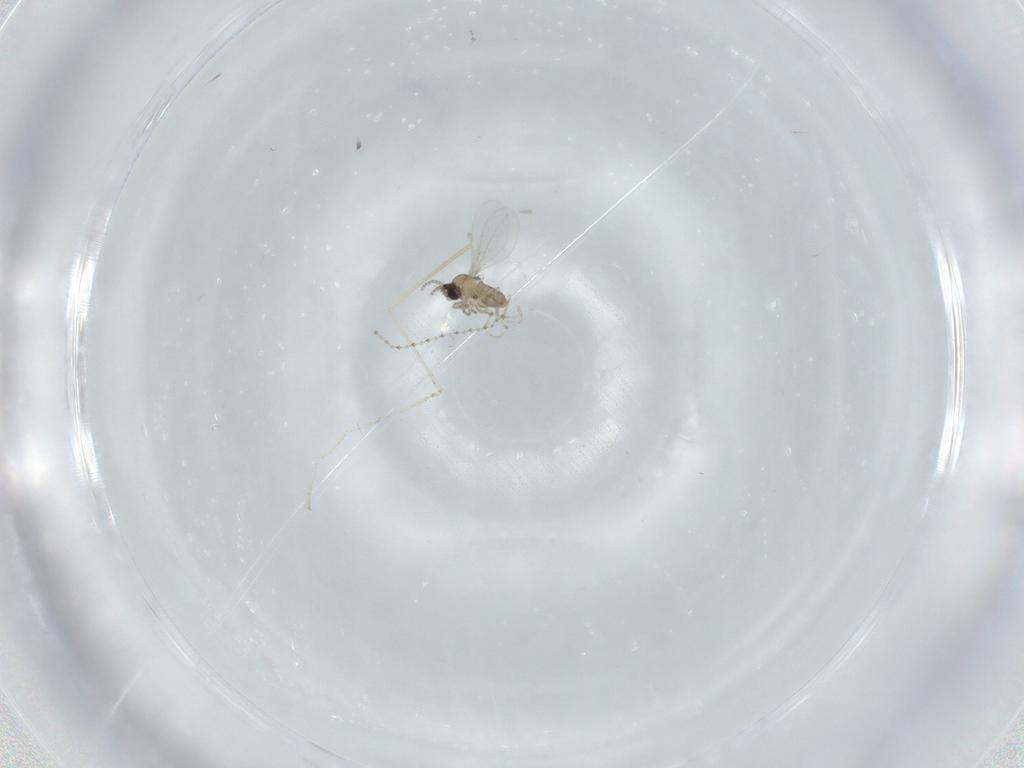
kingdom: Animalia
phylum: Arthropoda
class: Insecta
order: Diptera
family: Cecidomyiidae
